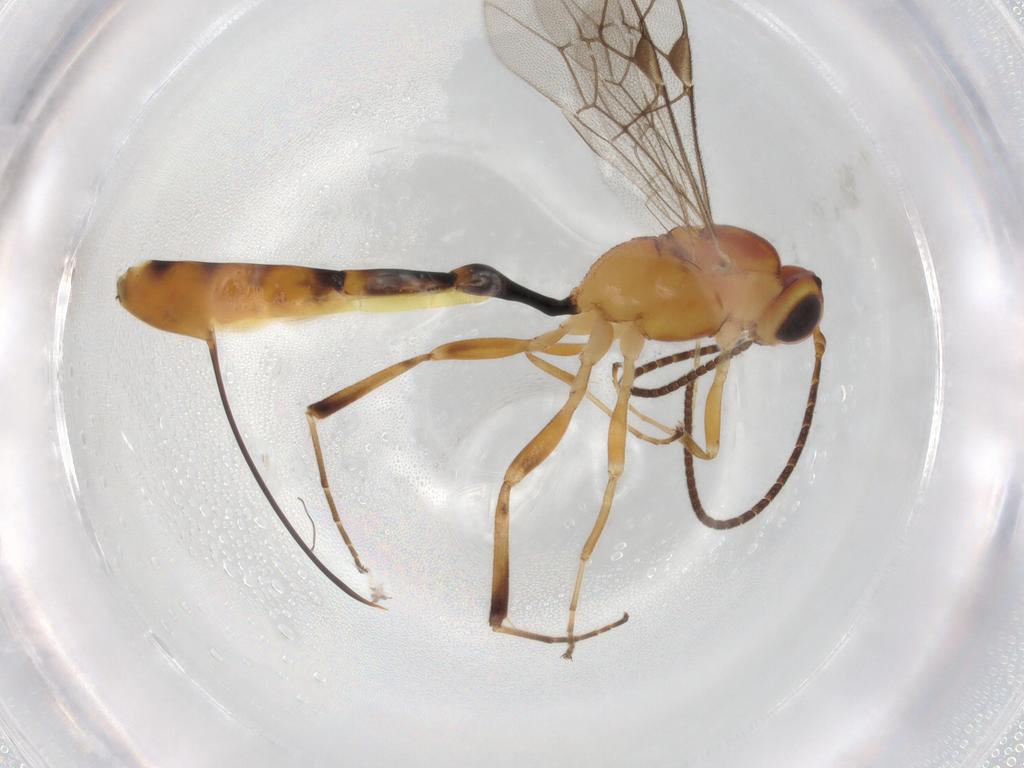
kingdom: Animalia
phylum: Arthropoda
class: Insecta
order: Hymenoptera
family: Ichneumonidae
